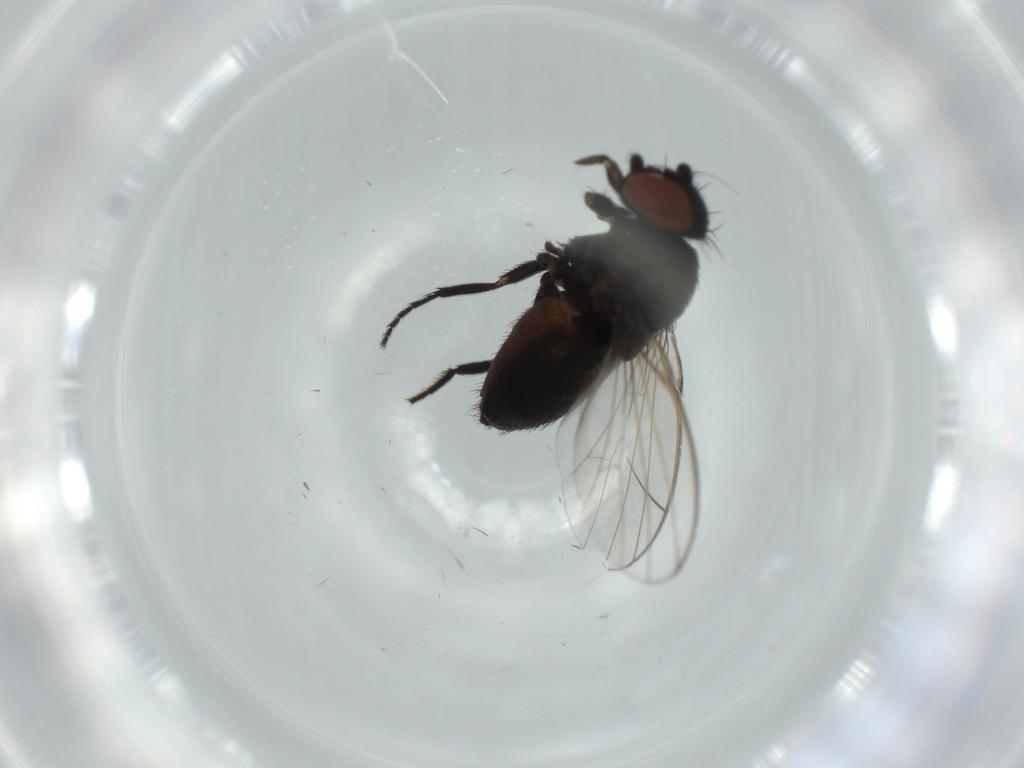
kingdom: Animalia
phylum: Arthropoda
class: Insecta
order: Diptera
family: Milichiidae
